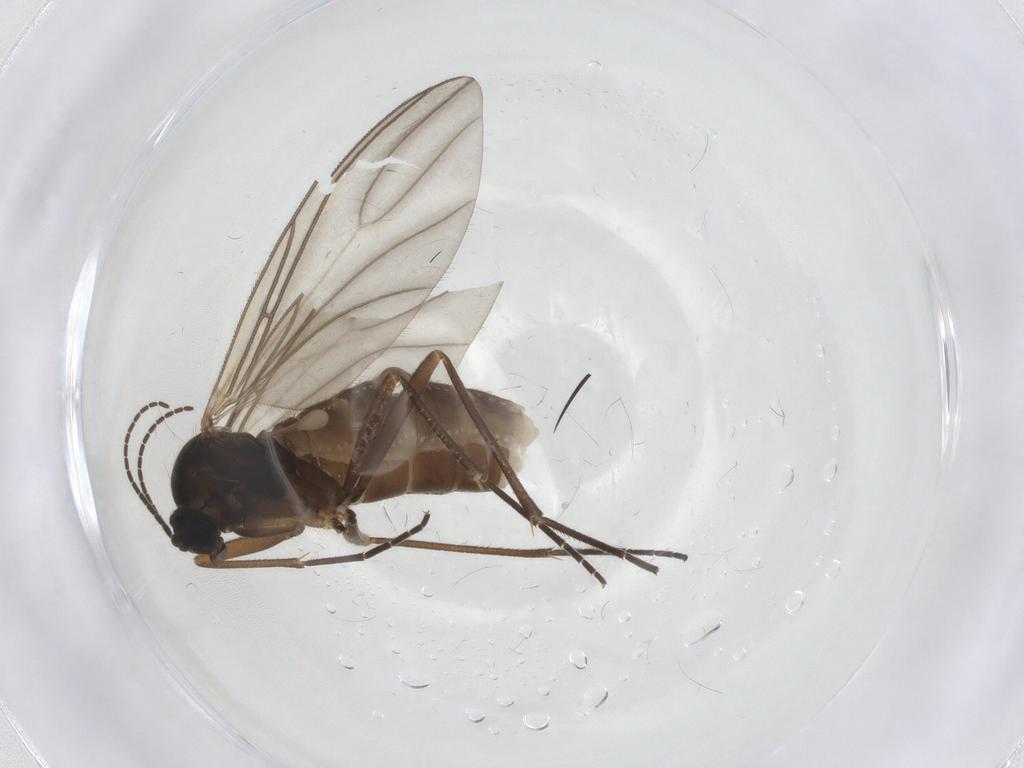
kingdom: Animalia
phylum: Arthropoda
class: Insecta
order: Diptera
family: Sciaridae
